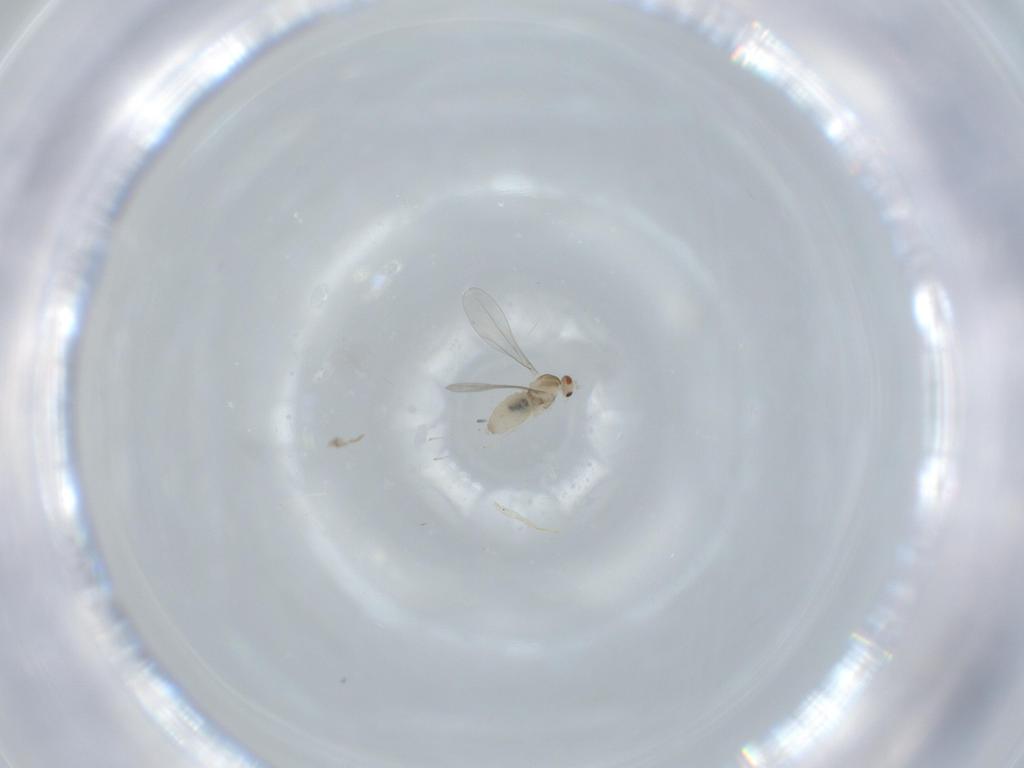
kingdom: Animalia
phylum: Arthropoda
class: Insecta
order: Diptera
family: Cecidomyiidae
